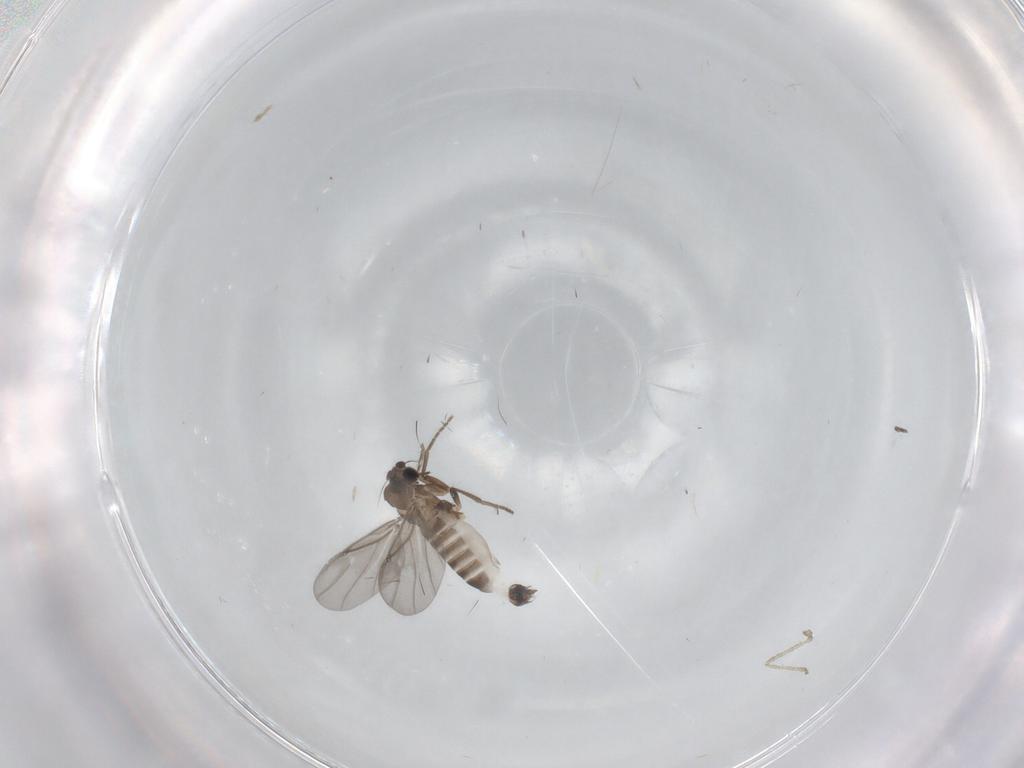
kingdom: Animalia
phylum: Arthropoda
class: Insecta
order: Diptera
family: Phoridae
